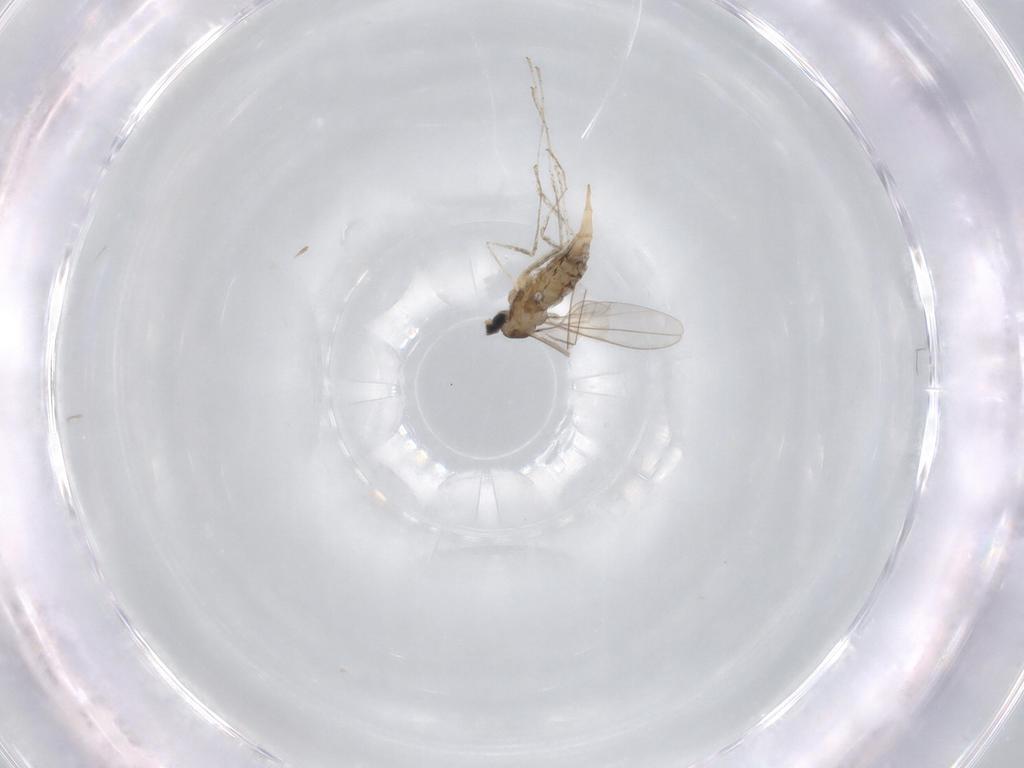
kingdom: Animalia
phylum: Arthropoda
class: Insecta
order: Diptera
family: Cecidomyiidae
